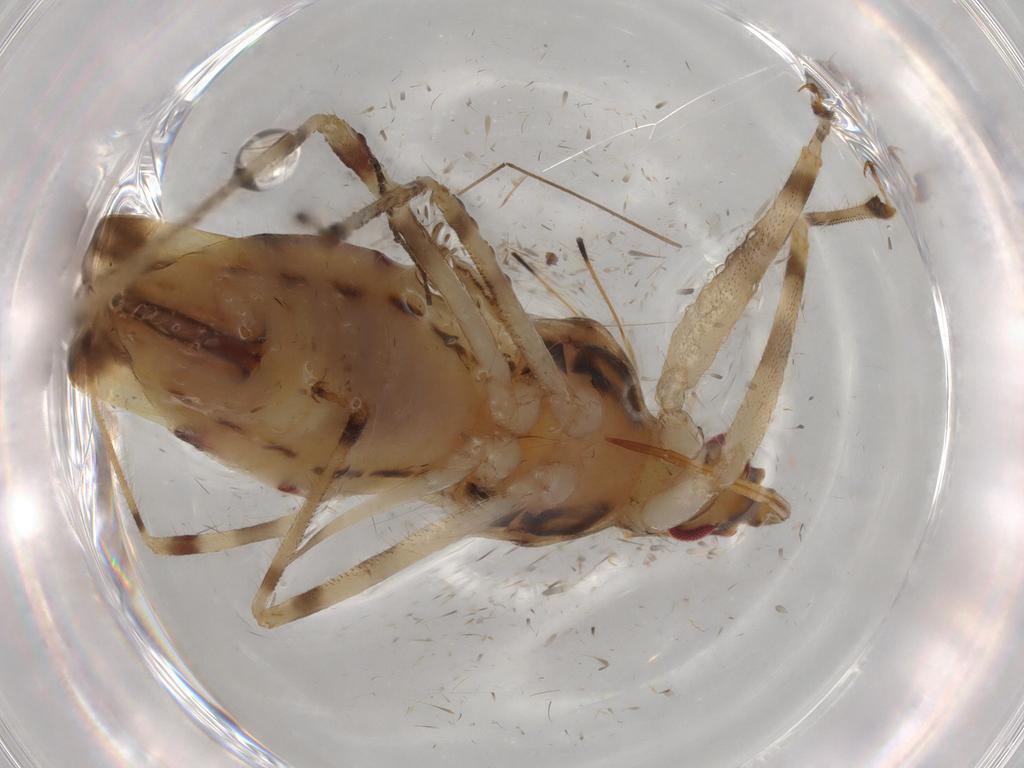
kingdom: Animalia
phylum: Arthropoda
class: Insecta
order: Hemiptera
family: Nabidae
